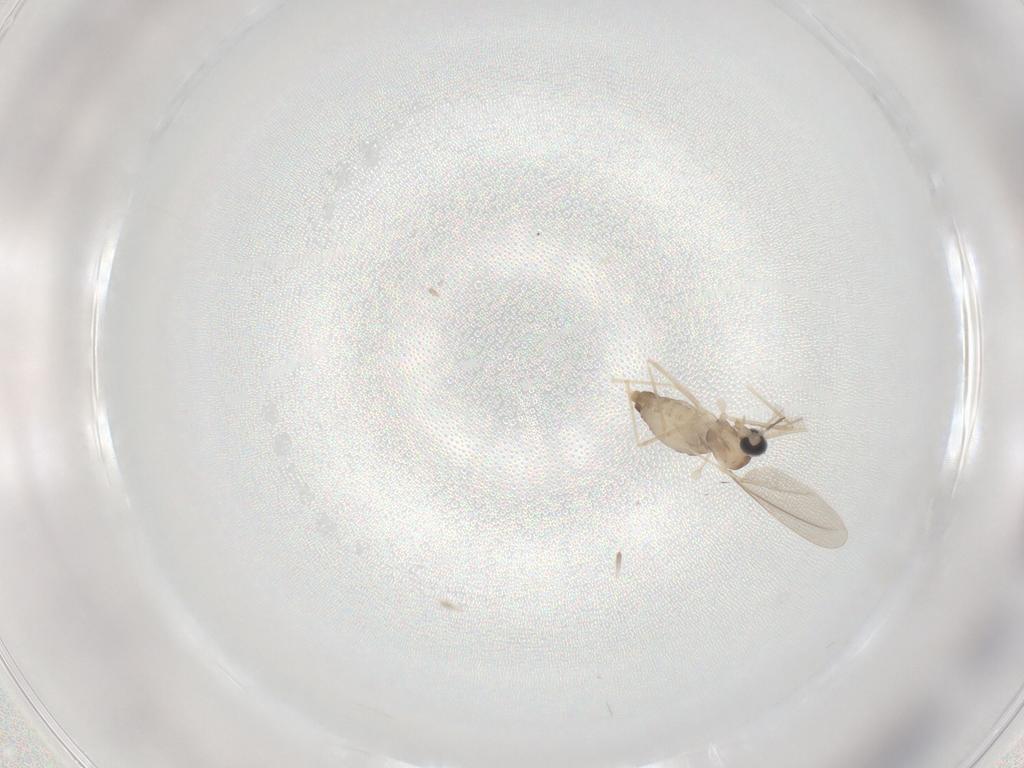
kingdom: Animalia
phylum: Arthropoda
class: Insecta
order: Diptera
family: Cecidomyiidae
